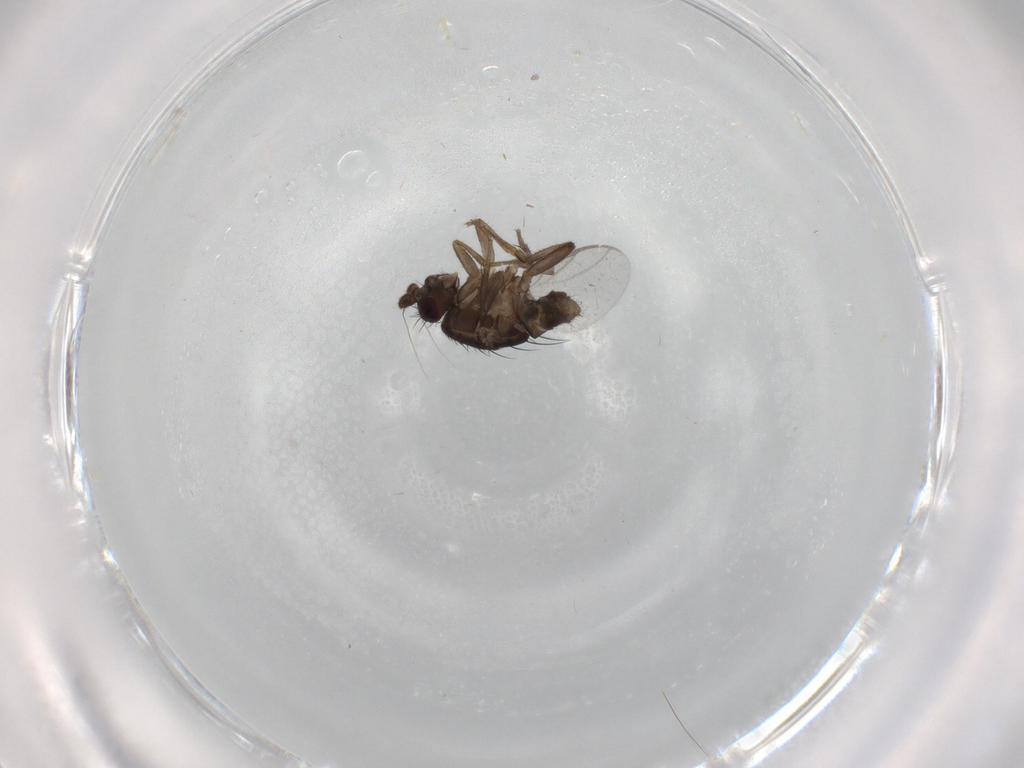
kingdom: Animalia
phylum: Arthropoda
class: Insecta
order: Diptera
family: Sphaeroceridae
